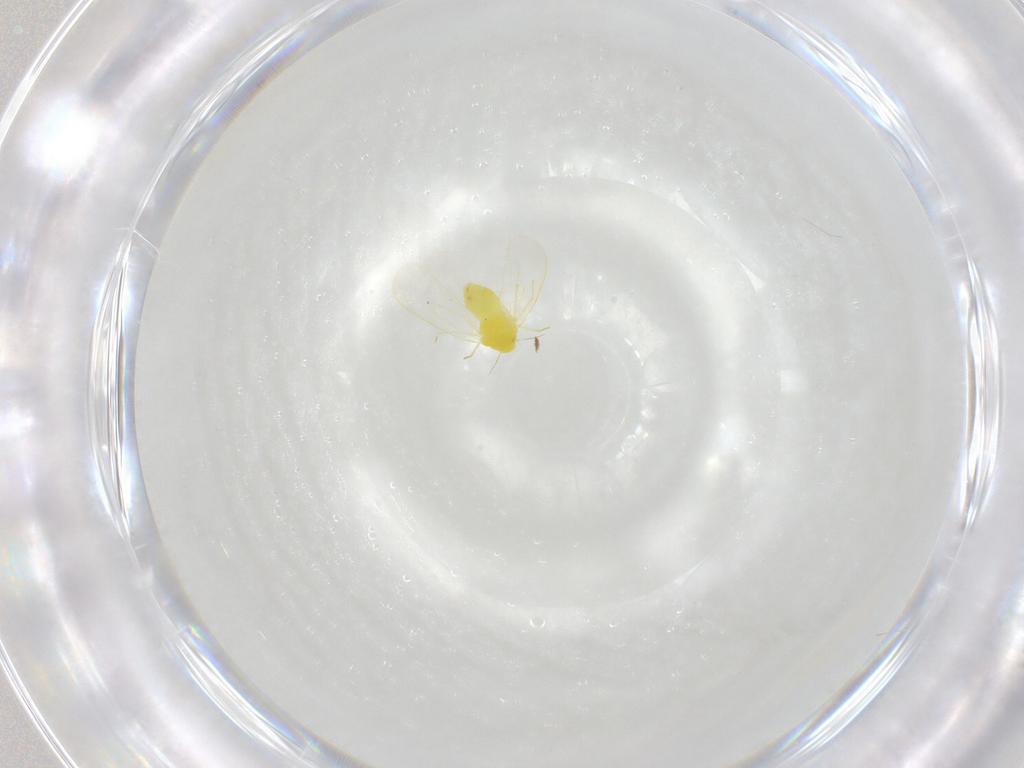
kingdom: Animalia
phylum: Arthropoda
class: Insecta
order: Hemiptera
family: Aleyrodidae
